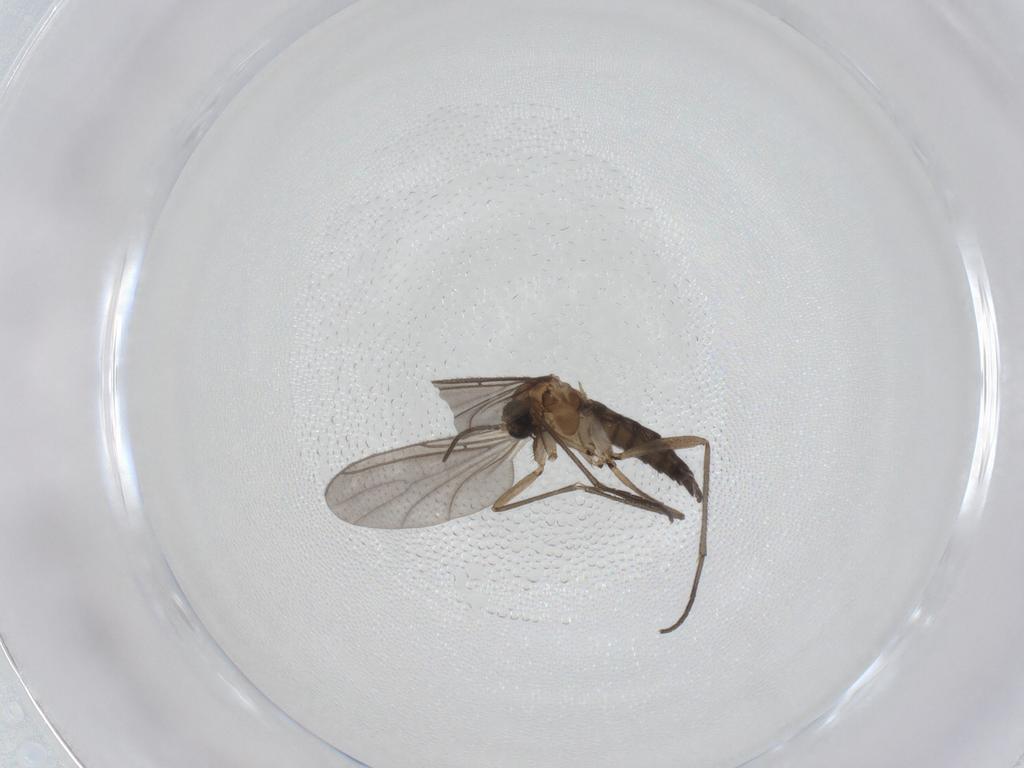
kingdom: Animalia
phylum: Arthropoda
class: Insecta
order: Diptera
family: Sciaridae
